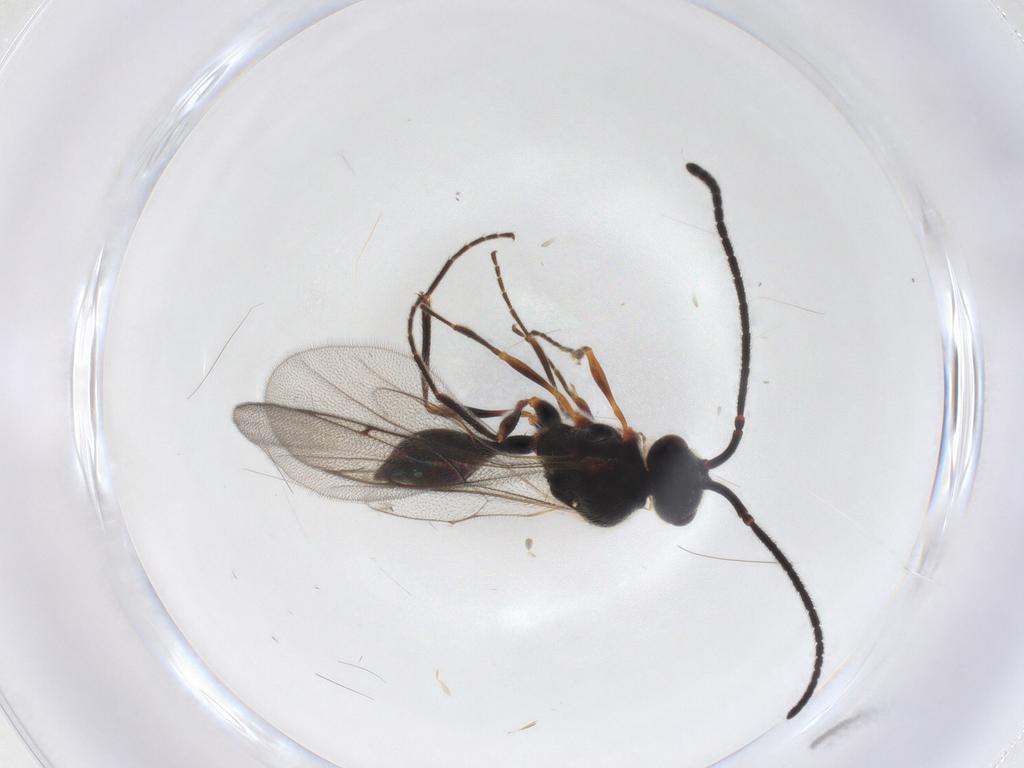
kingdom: Animalia
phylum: Arthropoda
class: Insecta
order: Hymenoptera
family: Diapriidae
